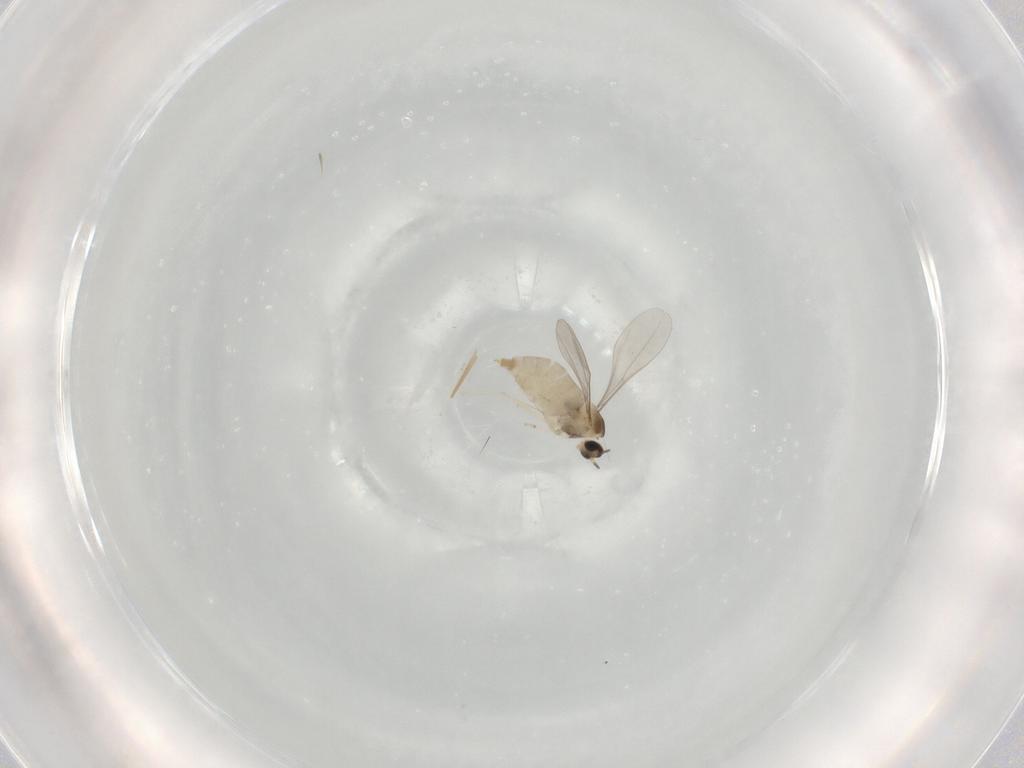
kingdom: Animalia
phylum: Arthropoda
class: Insecta
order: Diptera
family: Cecidomyiidae
